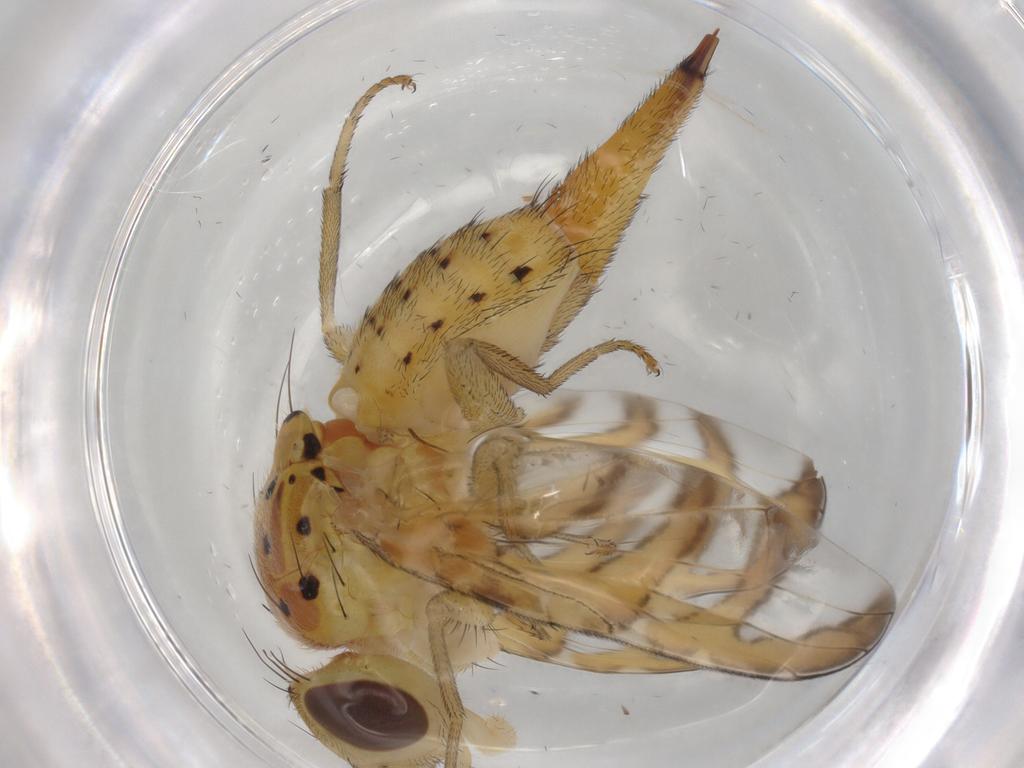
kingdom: Animalia
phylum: Arthropoda
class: Insecta
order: Diptera
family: Tephritidae
